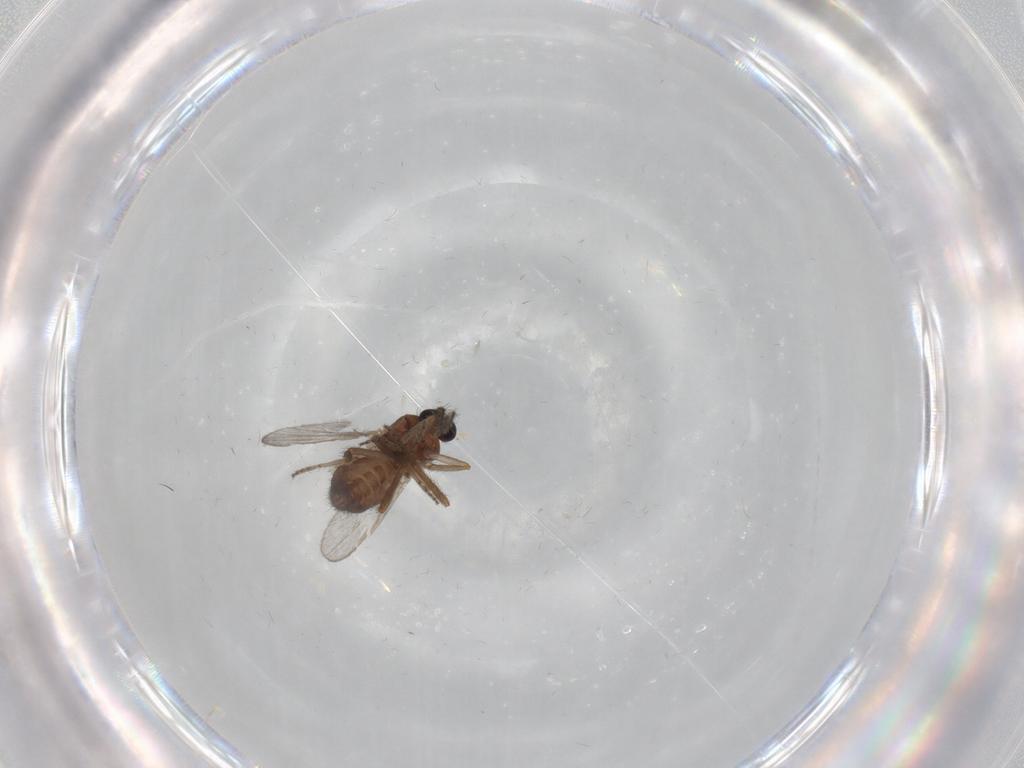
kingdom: Animalia
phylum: Arthropoda
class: Insecta
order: Diptera
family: Ceratopogonidae
